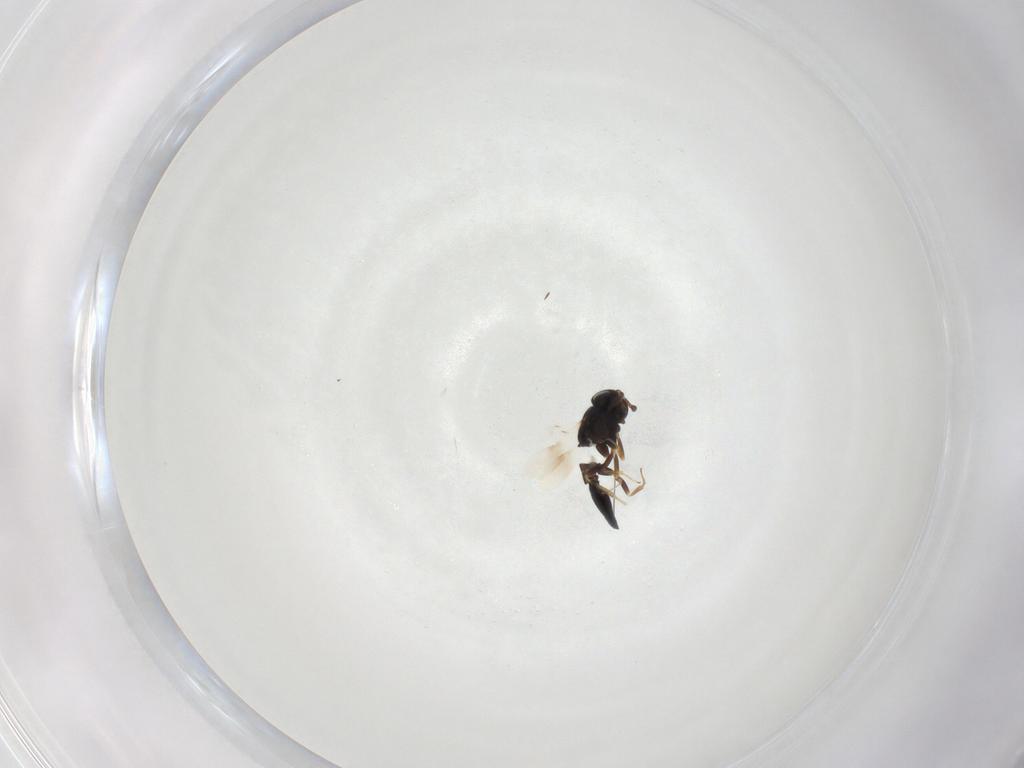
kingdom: Animalia
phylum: Arthropoda
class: Insecta
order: Hymenoptera
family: Scelionidae
